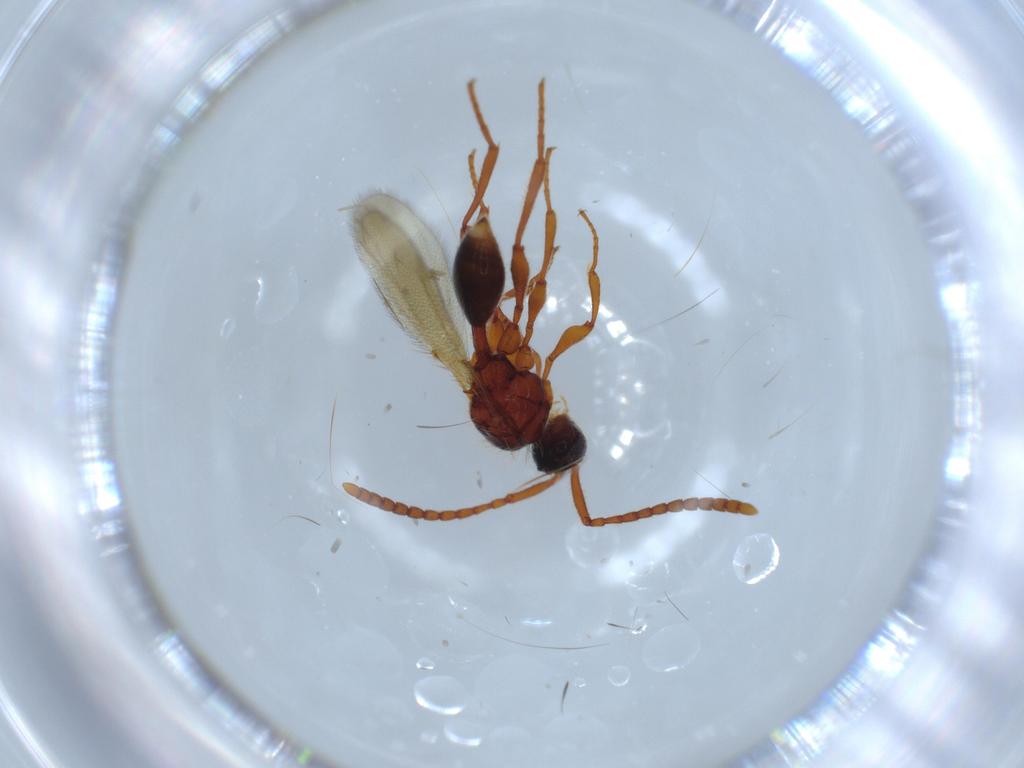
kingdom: Animalia
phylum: Arthropoda
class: Insecta
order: Hymenoptera
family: Diapriidae
